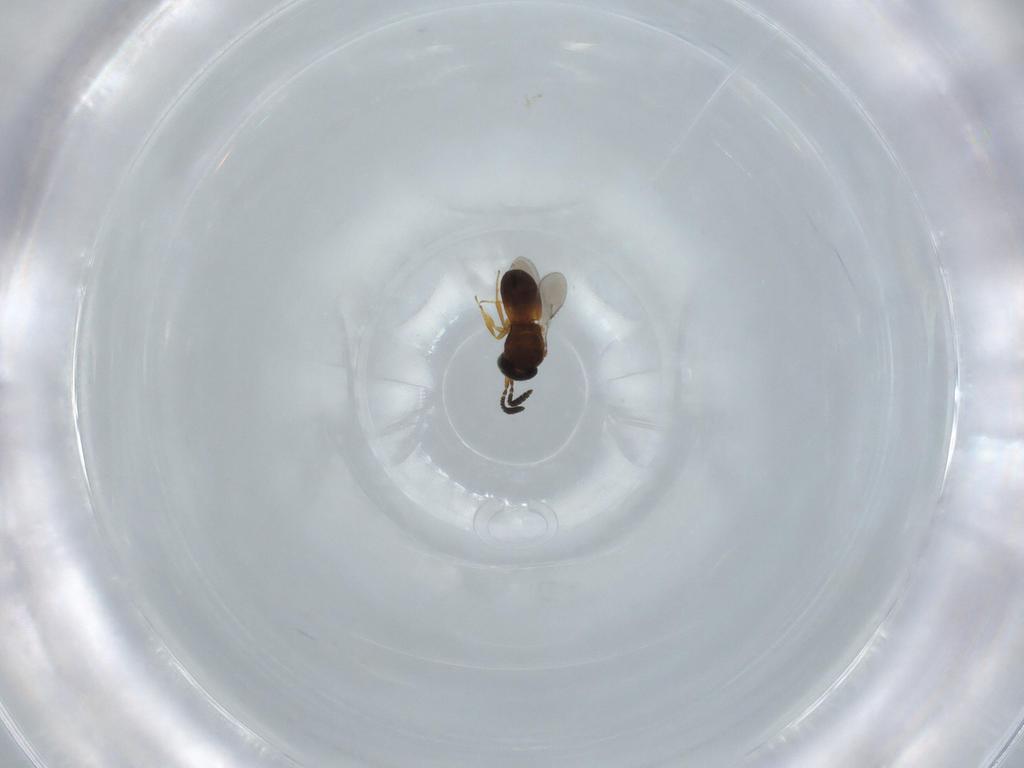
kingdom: Animalia
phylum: Arthropoda
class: Insecta
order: Hymenoptera
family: Scelionidae
